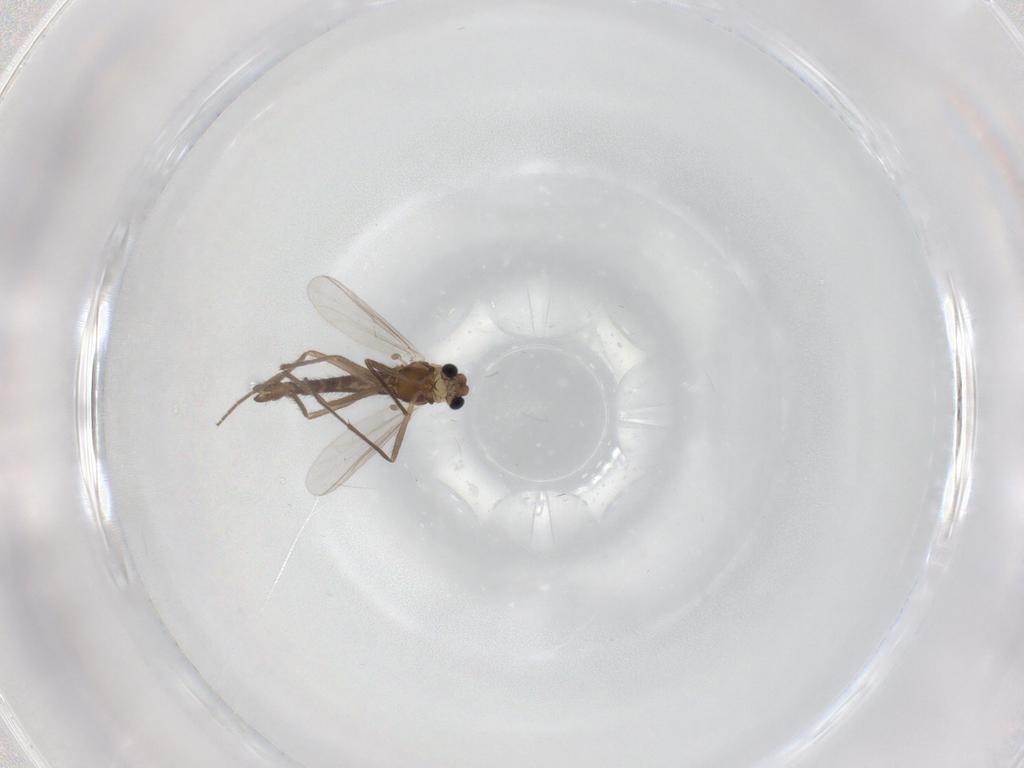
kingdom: Animalia
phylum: Arthropoda
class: Insecta
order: Diptera
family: Chironomidae
